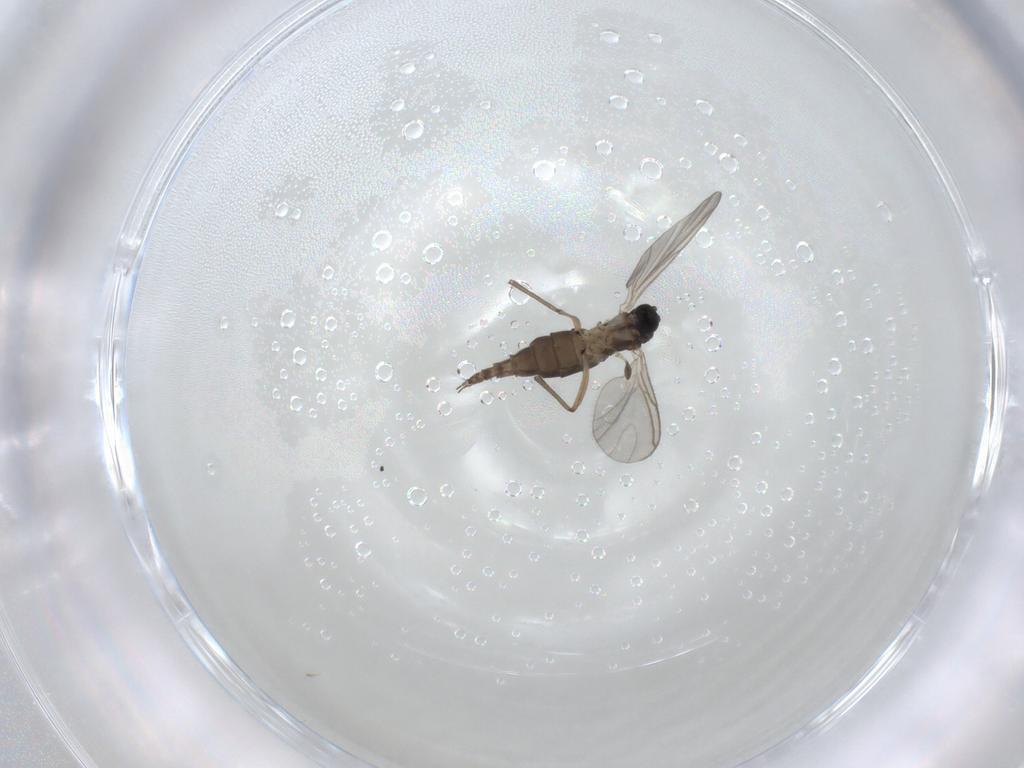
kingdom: Animalia
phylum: Arthropoda
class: Insecta
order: Diptera
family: Sciaridae
